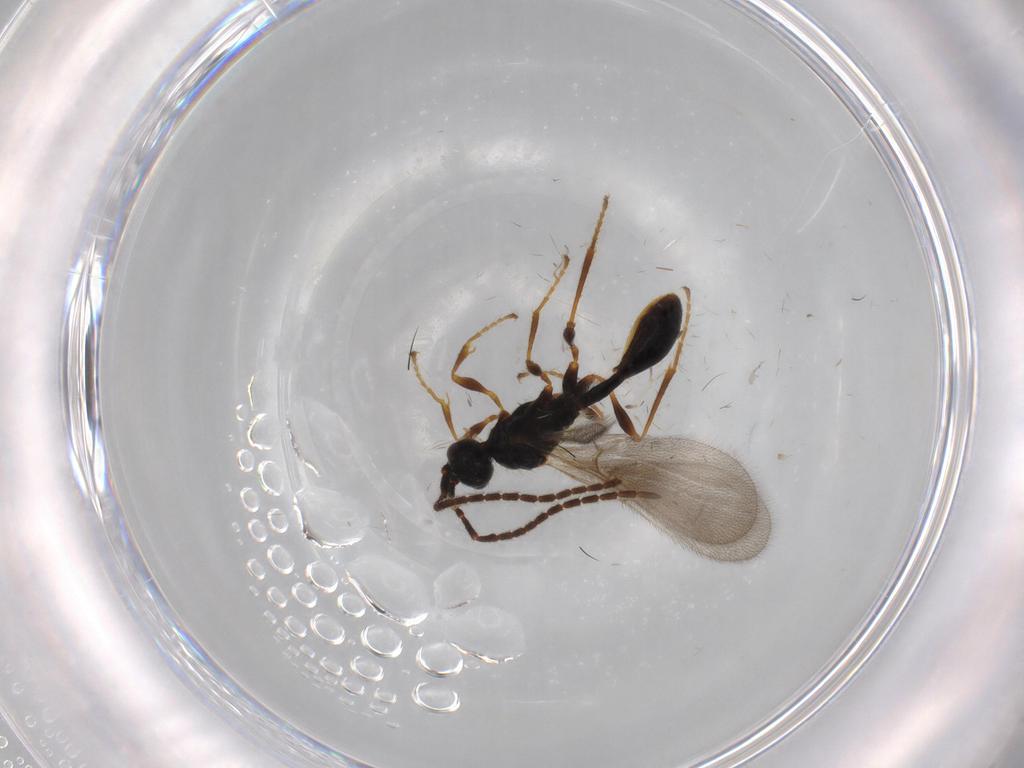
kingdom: Animalia
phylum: Arthropoda
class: Insecta
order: Hymenoptera
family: Diapriidae
